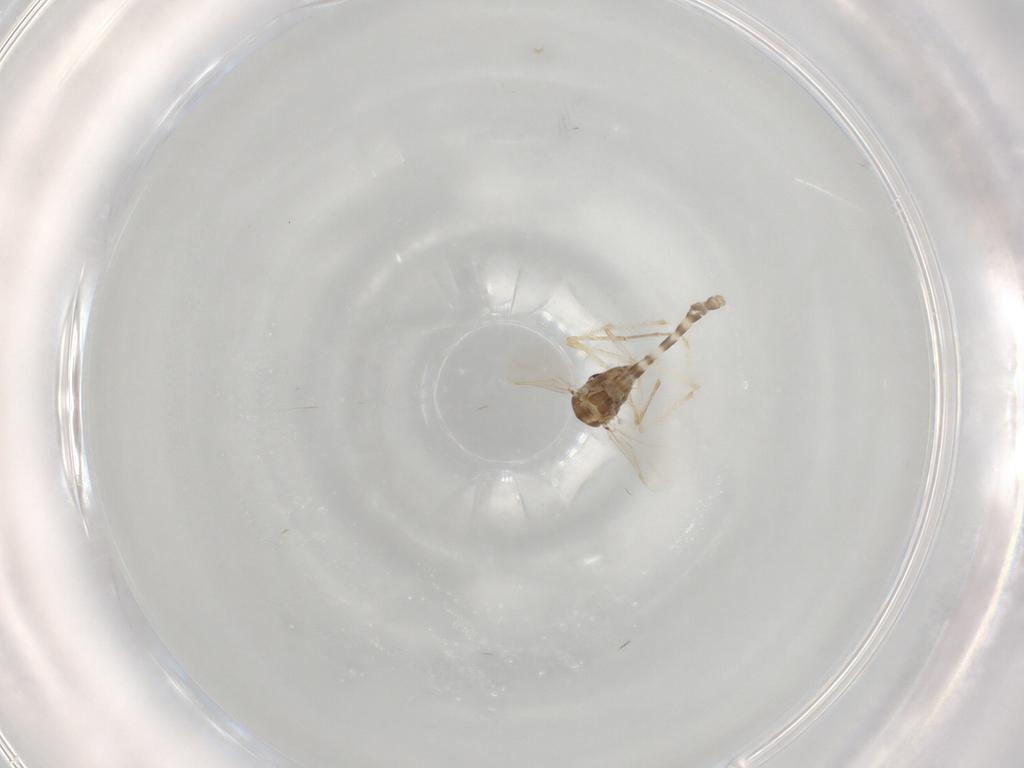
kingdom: Animalia
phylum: Arthropoda
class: Insecta
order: Diptera
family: Chironomidae
